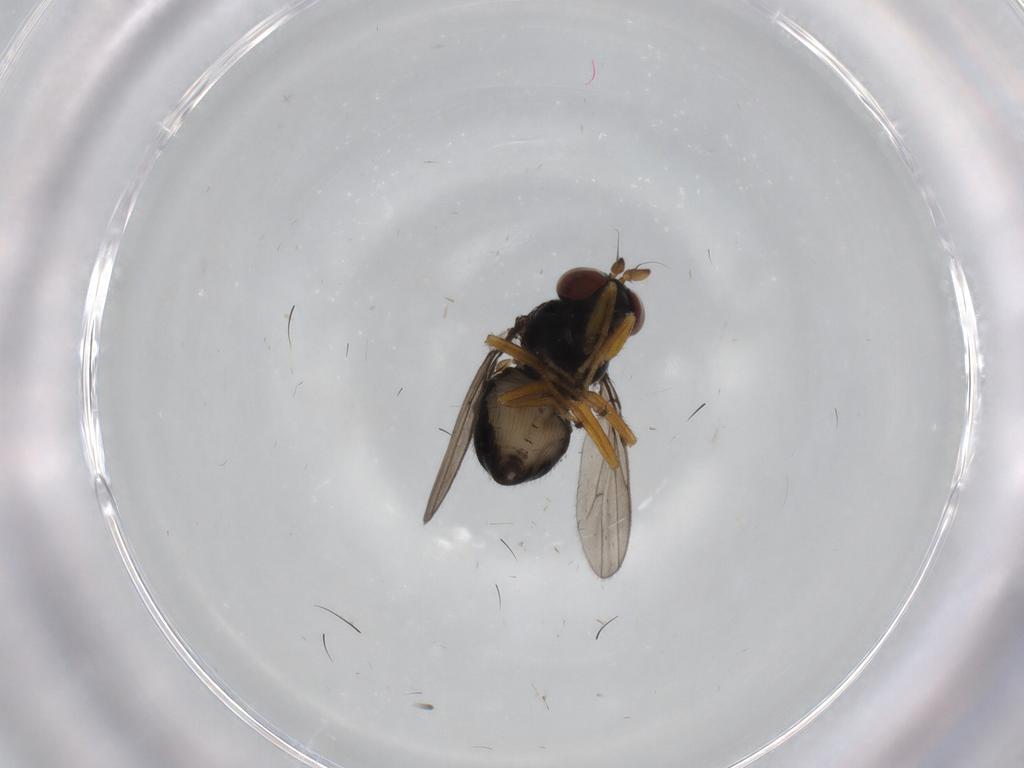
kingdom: Animalia
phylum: Arthropoda
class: Insecta
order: Diptera
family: Ephydridae
